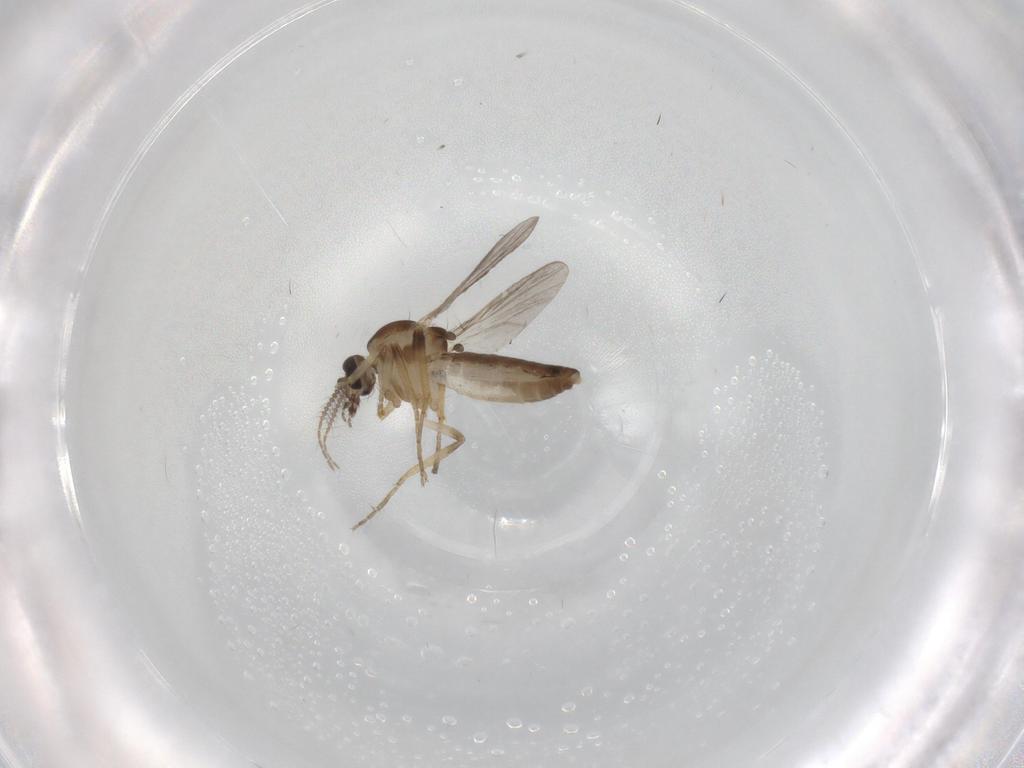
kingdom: Animalia
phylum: Arthropoda
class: Insecta
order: Diptera
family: Ceratopogonidae
